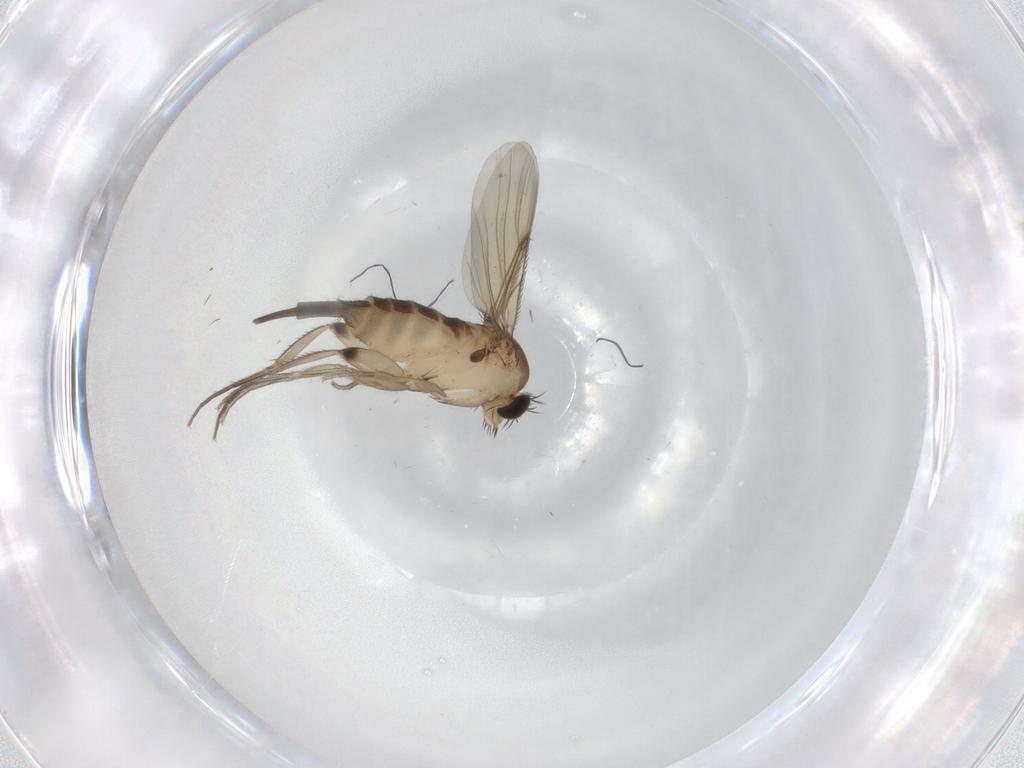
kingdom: Animalia
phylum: Arthropoda
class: Insecta
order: Diptera
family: Phoridae
